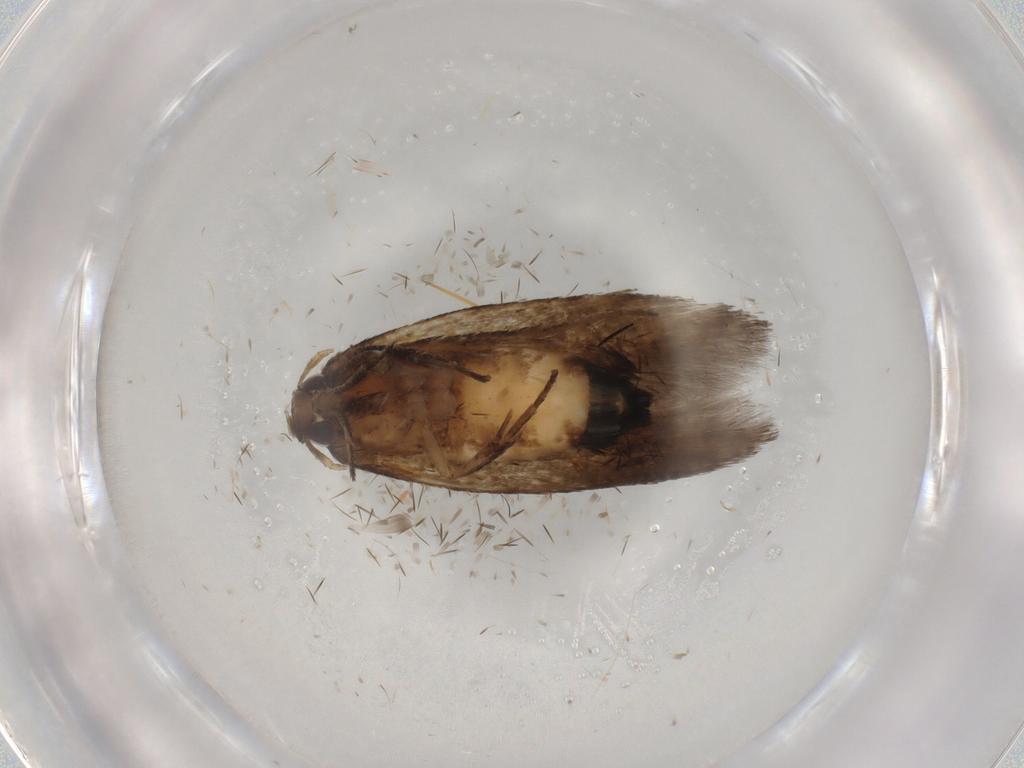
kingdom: Animalia
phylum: Arthropoda
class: Insecta
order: Lepidoptera
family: Cosmopterigidae
